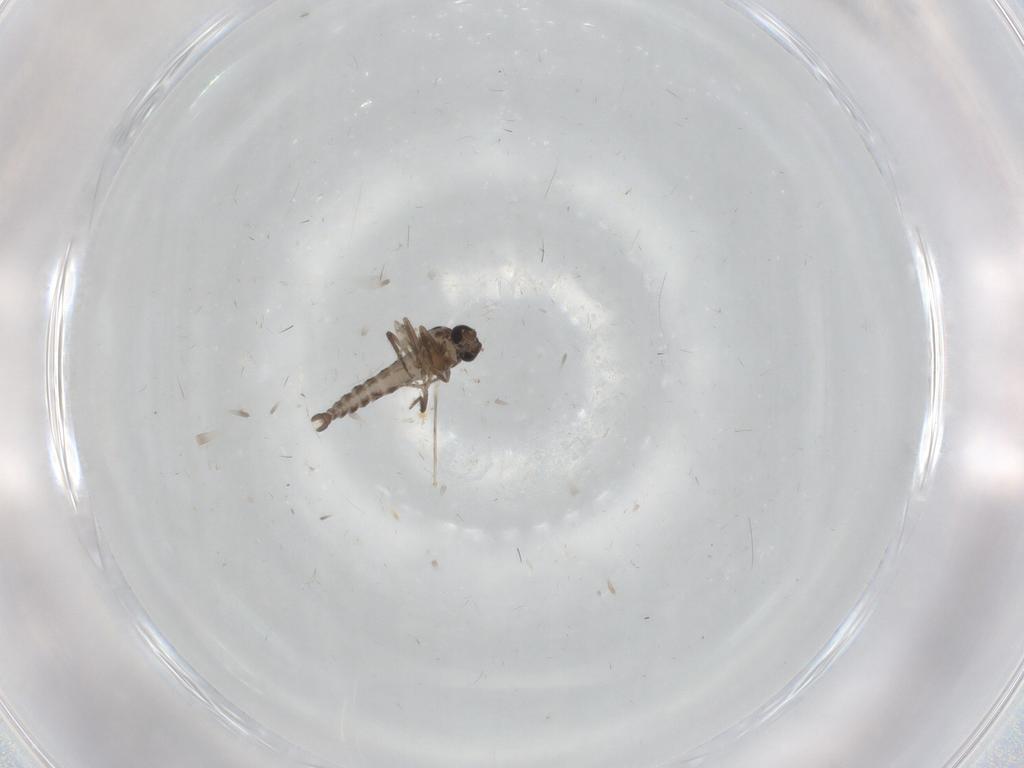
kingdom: Animalia
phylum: Arthropoda
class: Insecta
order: Diptera
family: Ceratopogonidae
